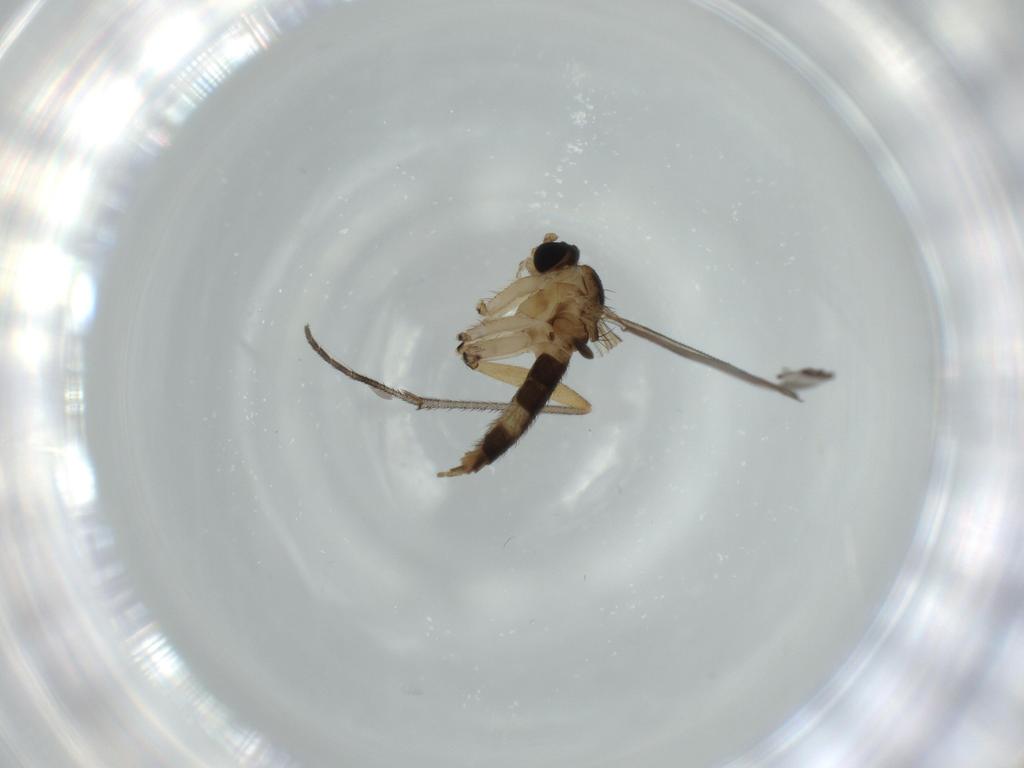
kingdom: Animalia
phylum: Arthropoda
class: Insecta
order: Diptera
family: Sciaridae
